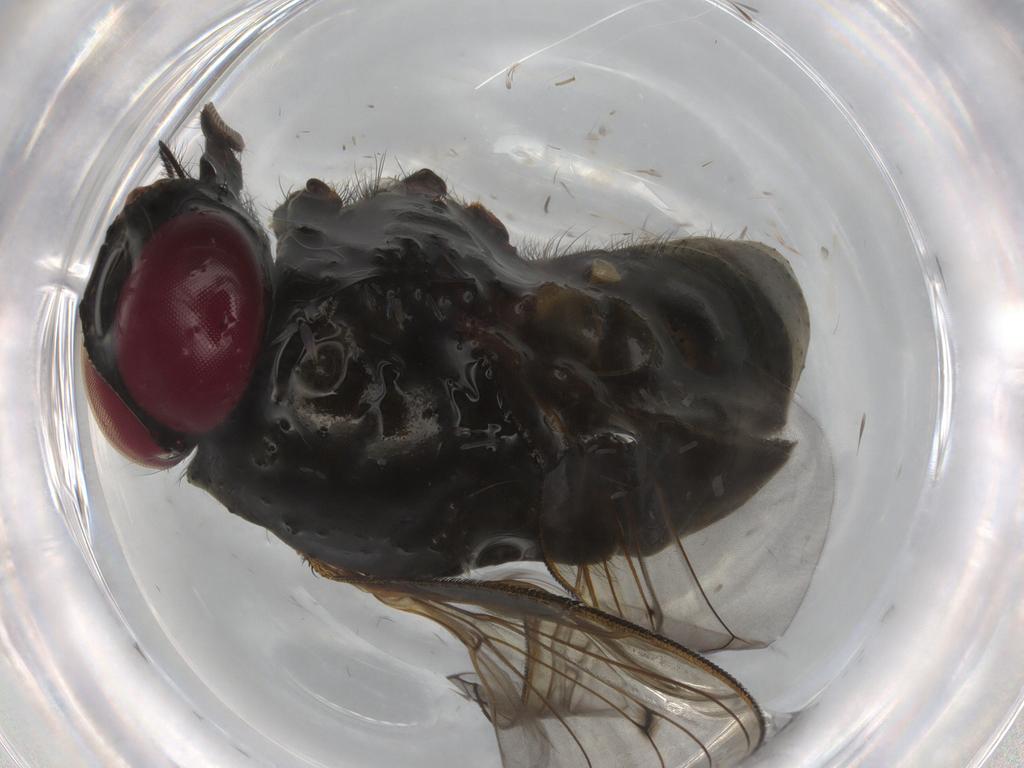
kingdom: Animalia
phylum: Arthropoda
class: Insecta
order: Diptera
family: Muscidae
